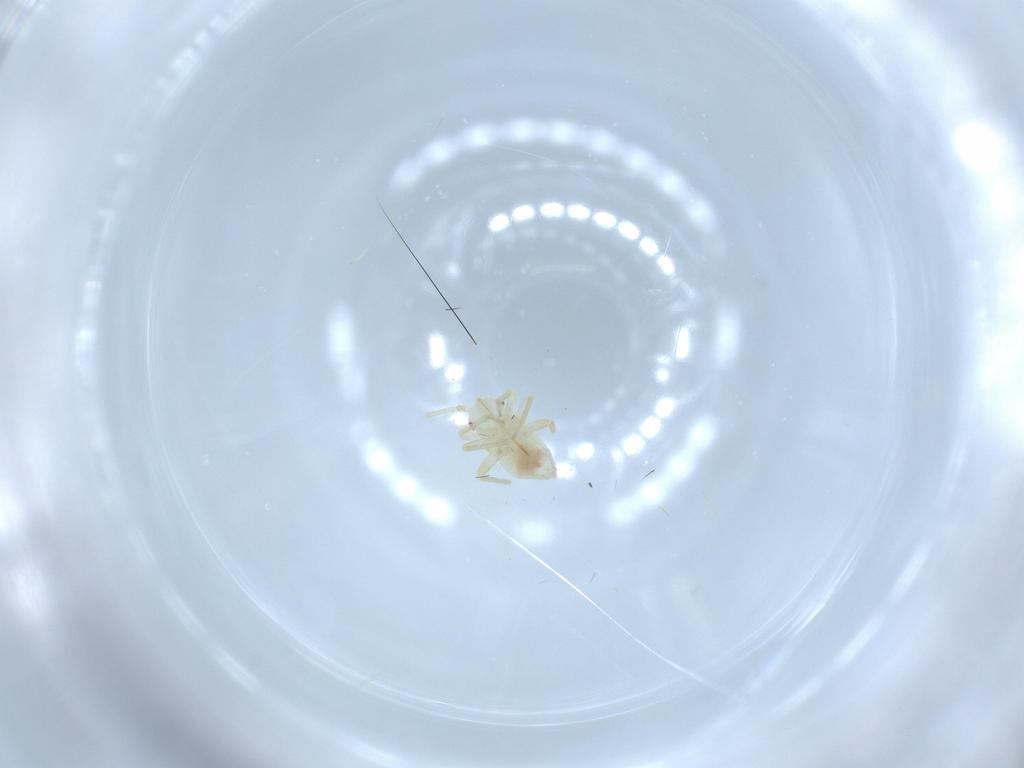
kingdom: Animalia
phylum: Arthropoda
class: Insecta
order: Hemiptera
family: Miridae
